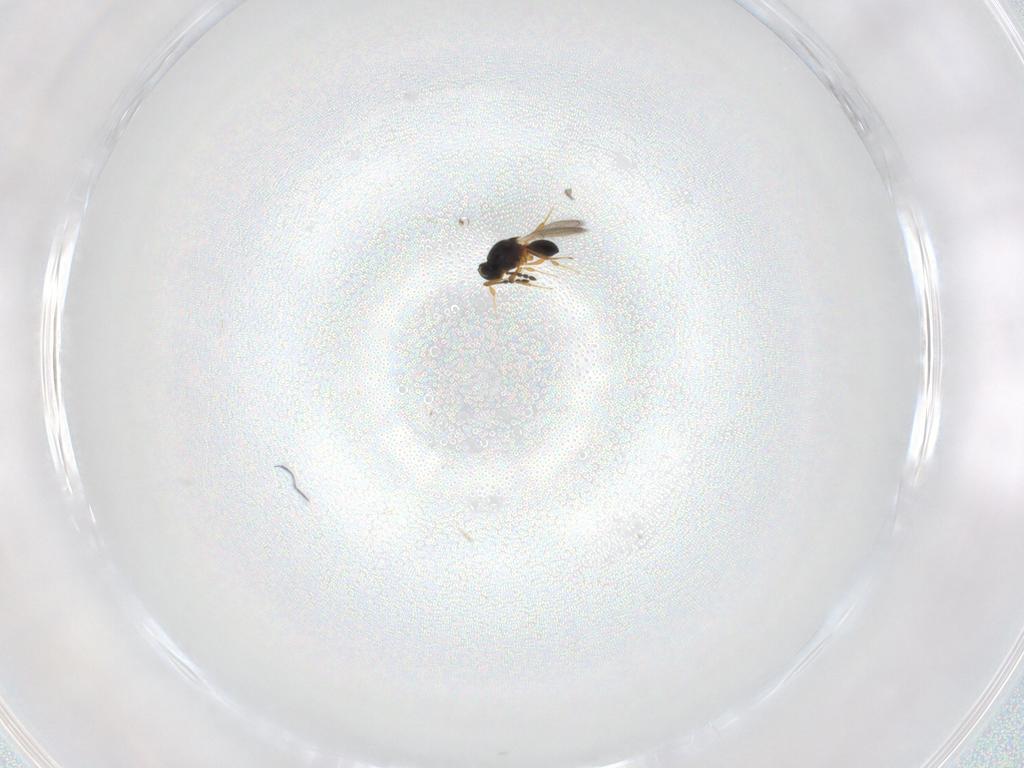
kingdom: Animalia
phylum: Arthropoda
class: Insecta
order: Hymenoptera
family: Platygastridae
